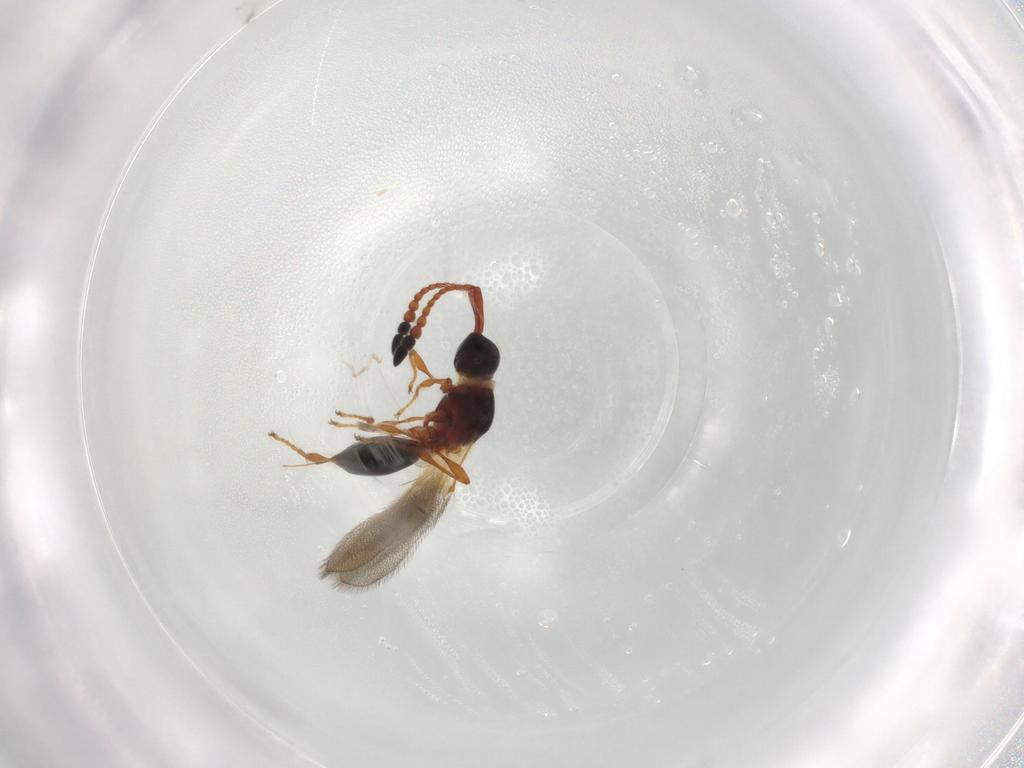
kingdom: Animalia
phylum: Arthropoda
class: Insecta
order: Hymenoptera
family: Diapriidae
